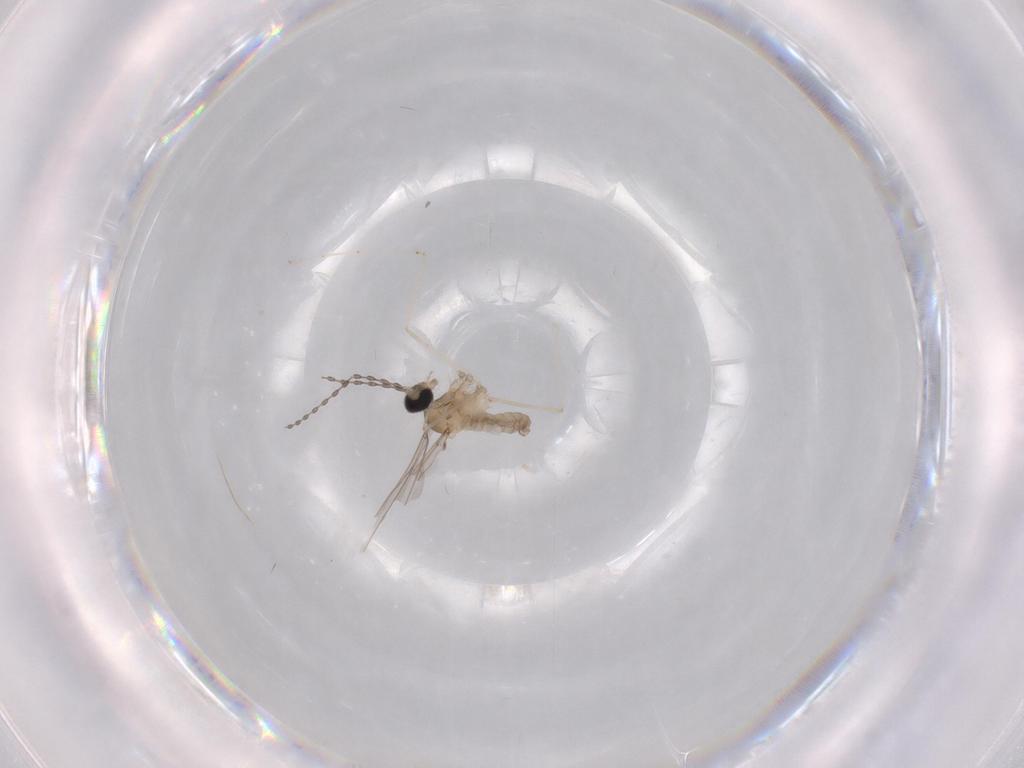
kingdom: Animalia
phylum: Arthropoda
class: Insecta
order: Diptera
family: Cecidomyiidae
